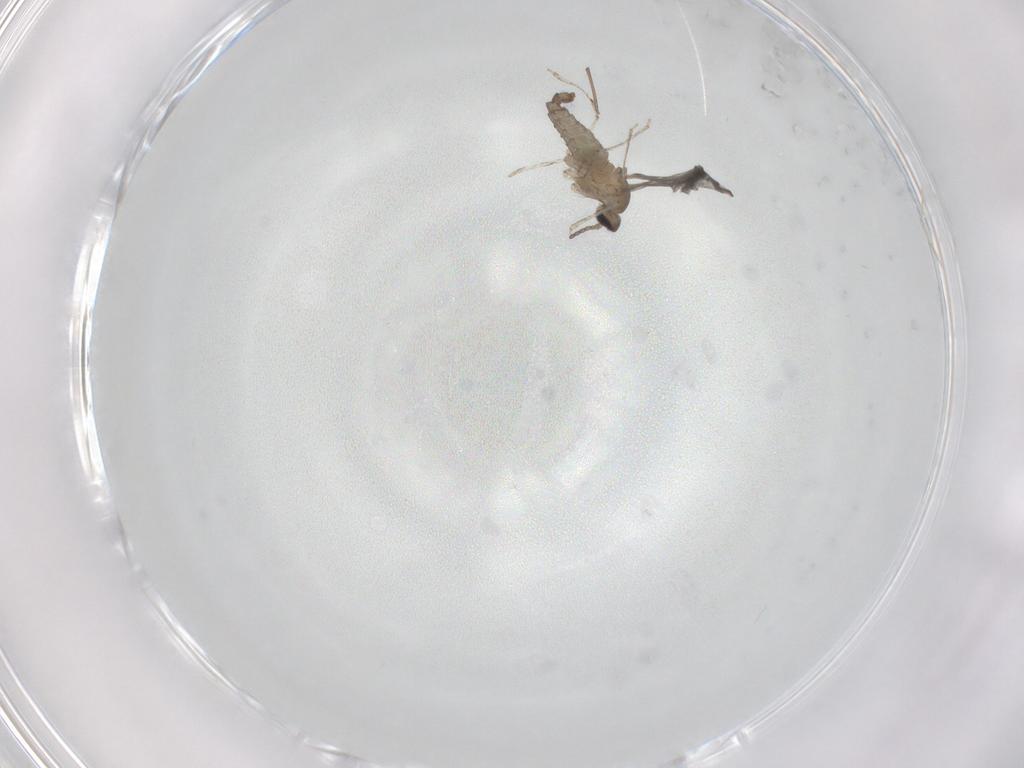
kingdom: Animalia
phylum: Arthropoda
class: Insecta
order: Diptera
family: Cecidomyiidae
